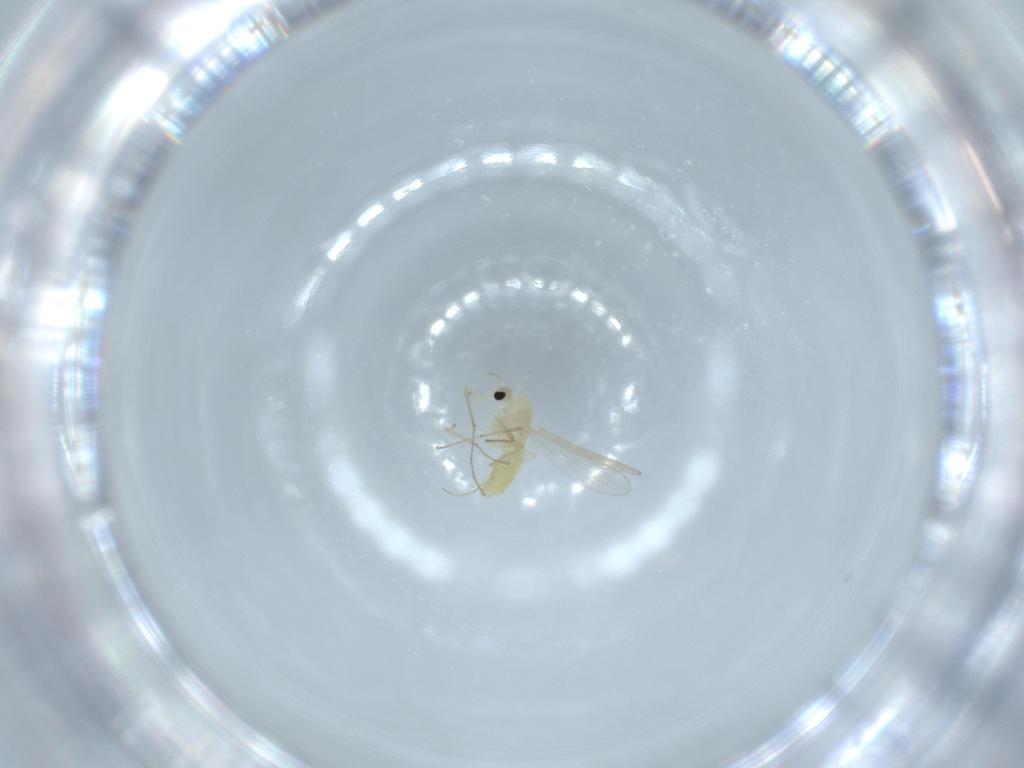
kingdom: Animalia
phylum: Arthropoda
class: Insecta
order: Diptera
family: Chironomidae
